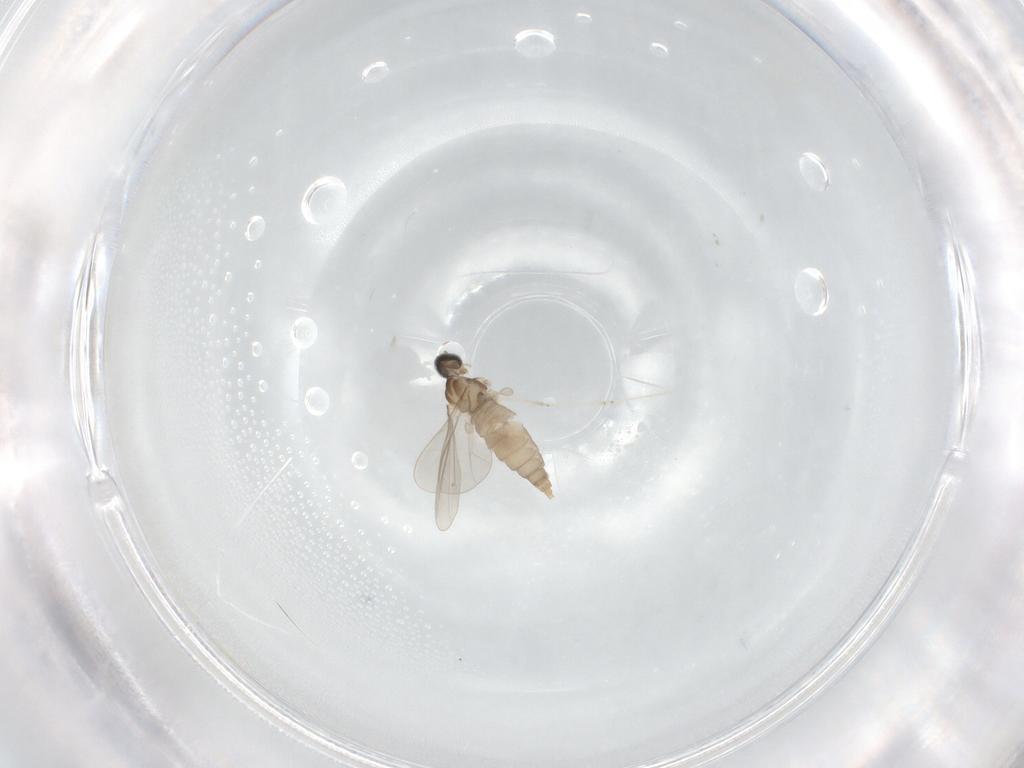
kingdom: Animalia
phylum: Arthropoda
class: Insecta
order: Diptera
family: Ceratopogonidae
